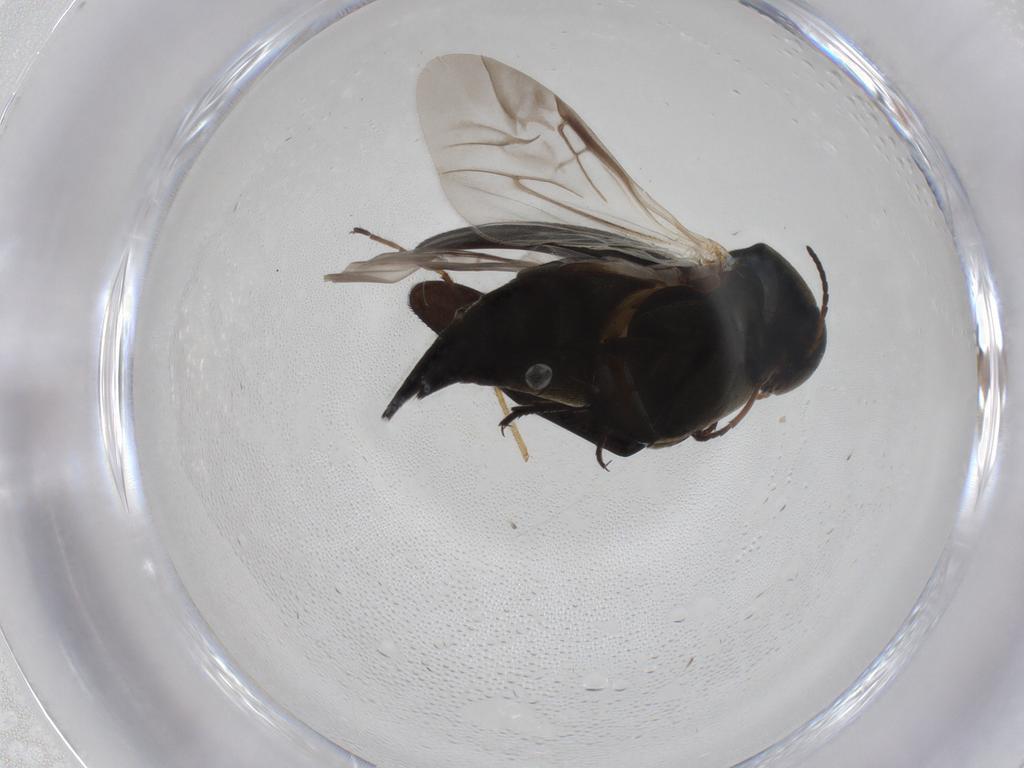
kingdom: Animalia
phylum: Arthropoda
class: Insecta
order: Coleoptera
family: Mordellidae
